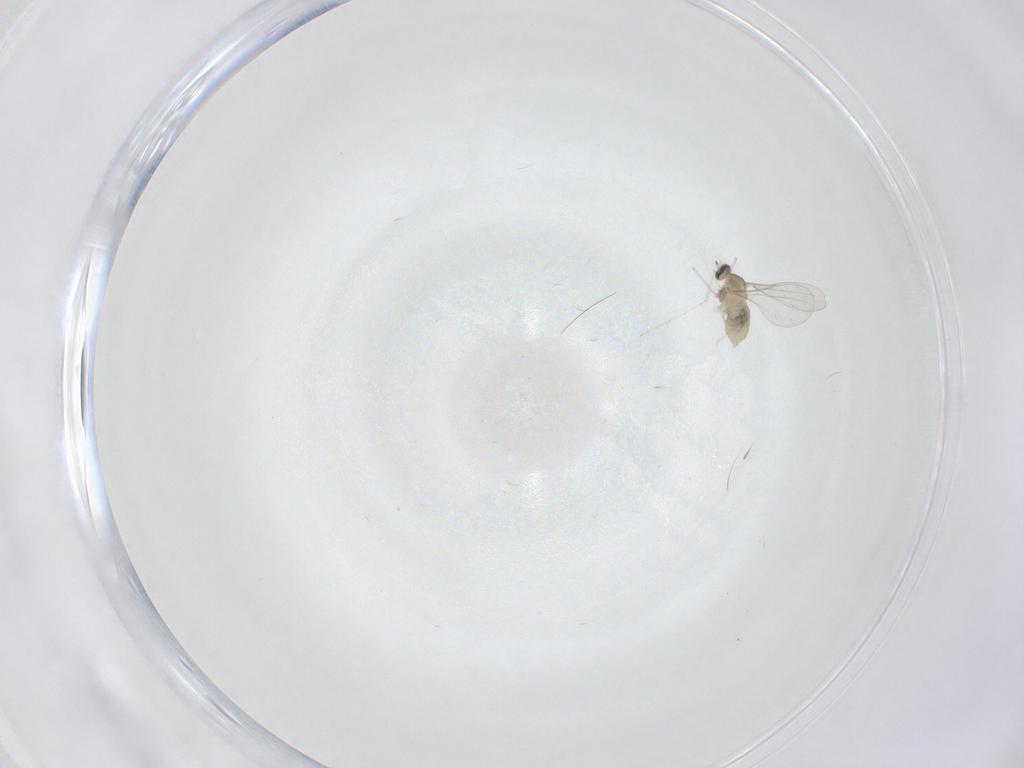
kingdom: Animalia
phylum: Arthropoda
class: Insecta
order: Diptera
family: Cecidomyiidae
